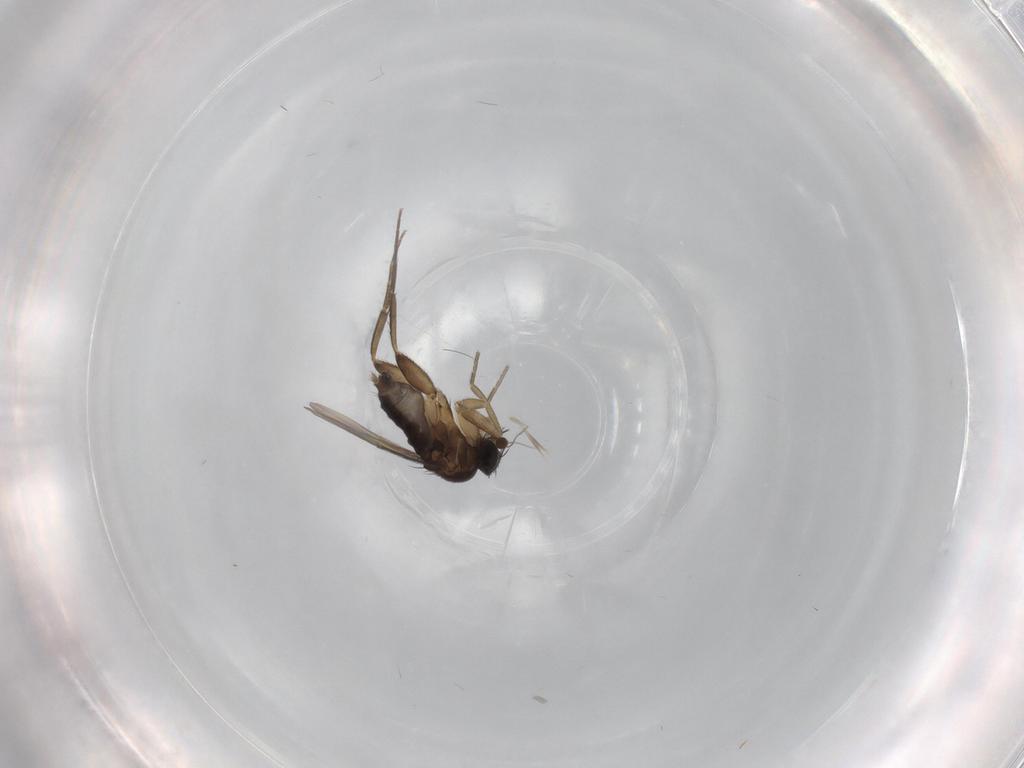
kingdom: Animalia
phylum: Arthropoda
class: Insecta
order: Diptera
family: Phoridae
